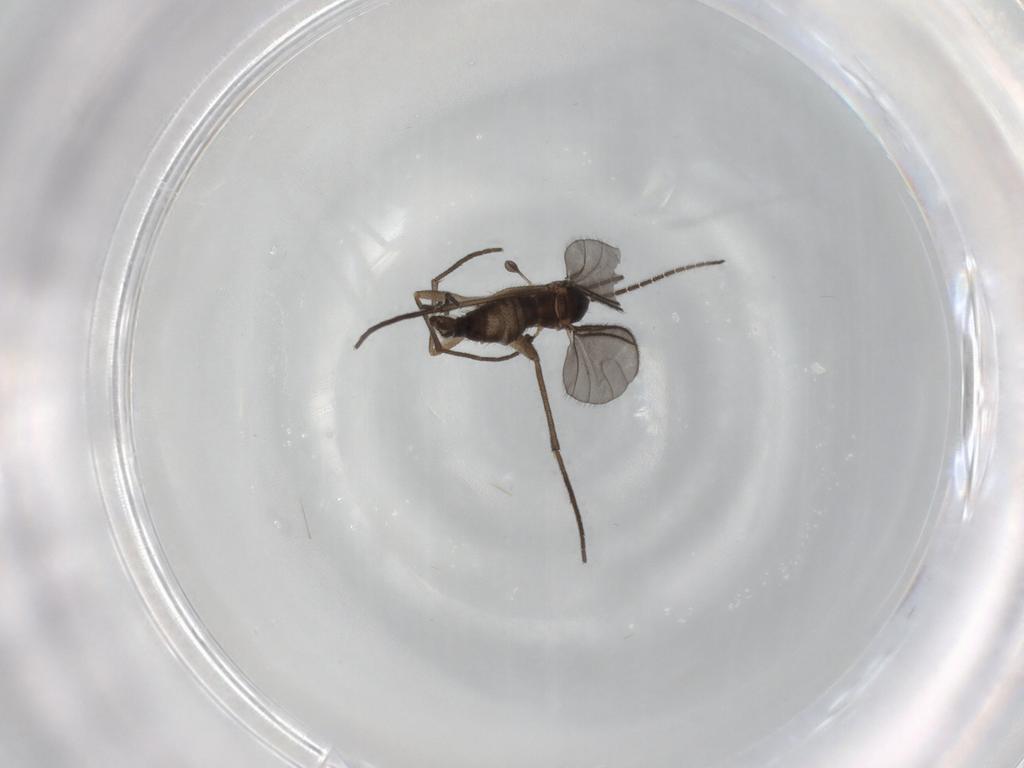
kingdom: Animalia
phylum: Arthropoda
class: Insecta
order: Diptera
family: Sciaridae
